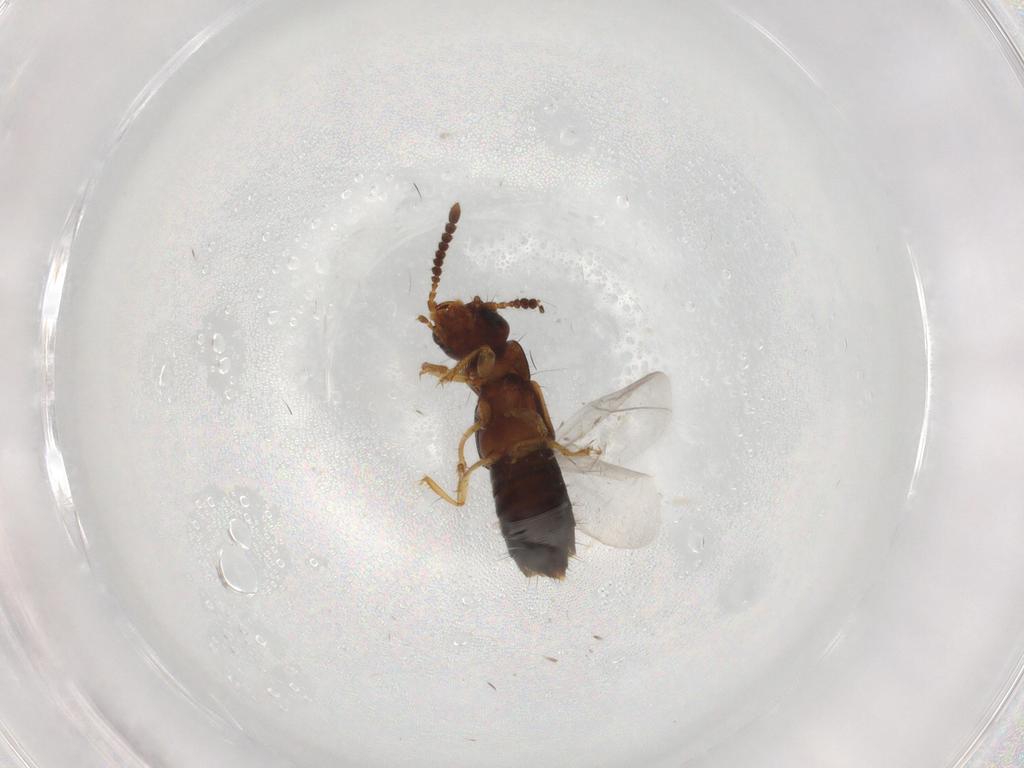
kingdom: Animalia
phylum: Arthropoda
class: Insecta
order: Coleoptera
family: Staphylinidae
